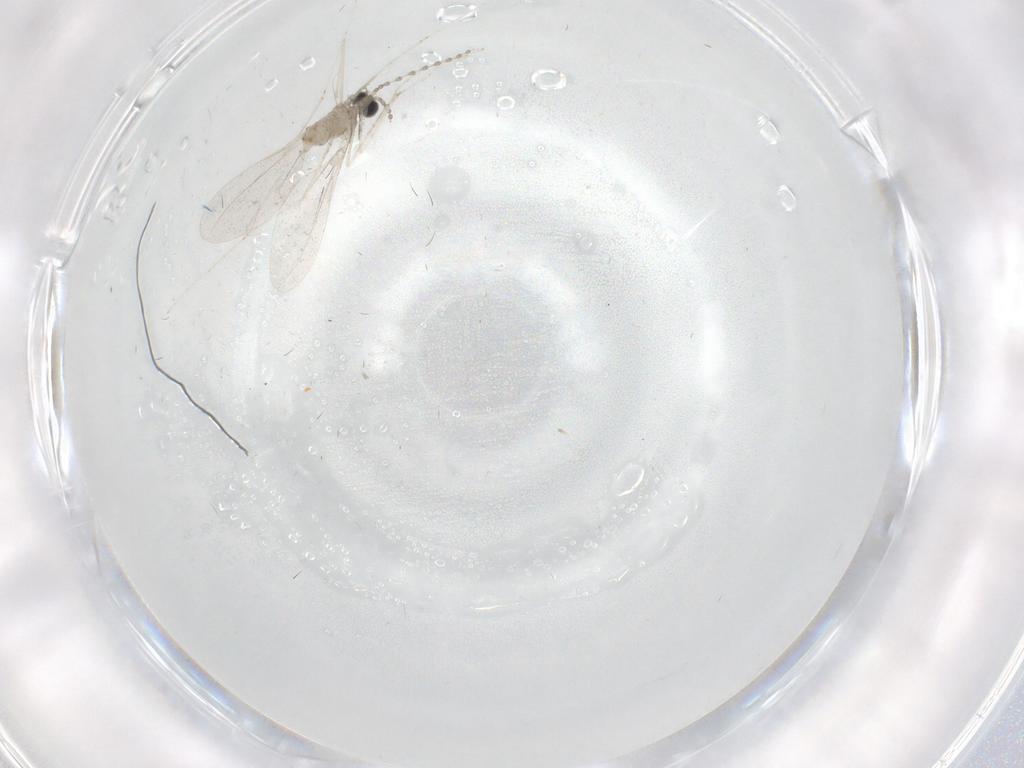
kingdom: Animalia
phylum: Arthropoda
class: Insecta
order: Diptera
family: Cecidomyiidae
